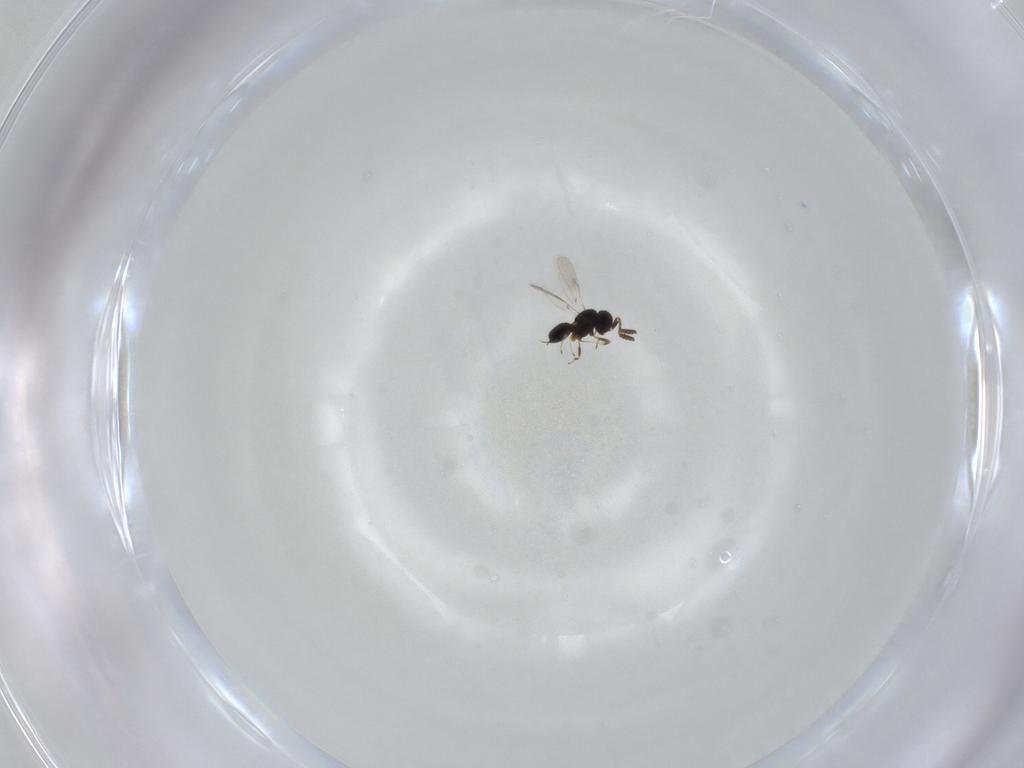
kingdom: Animalia
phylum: Arthropoda
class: Insecta
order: Hymenoptera
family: Scelionidae
